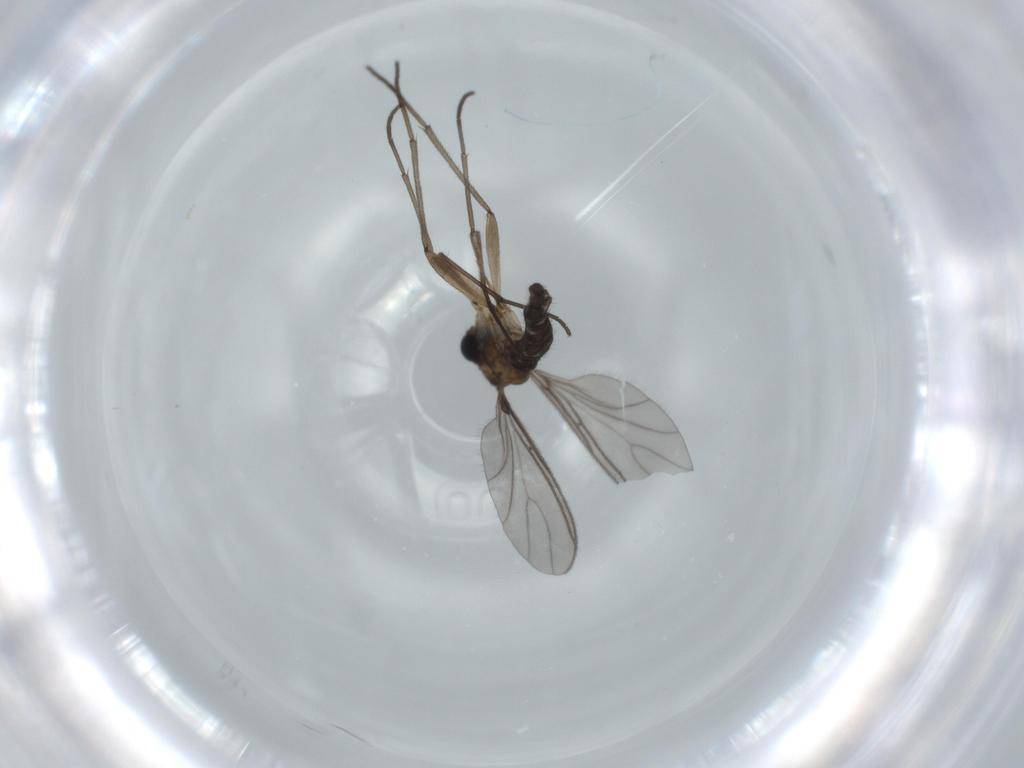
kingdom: Animalia
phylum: Arthropoda
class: Insecta
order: Diptera
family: Sciaridae
